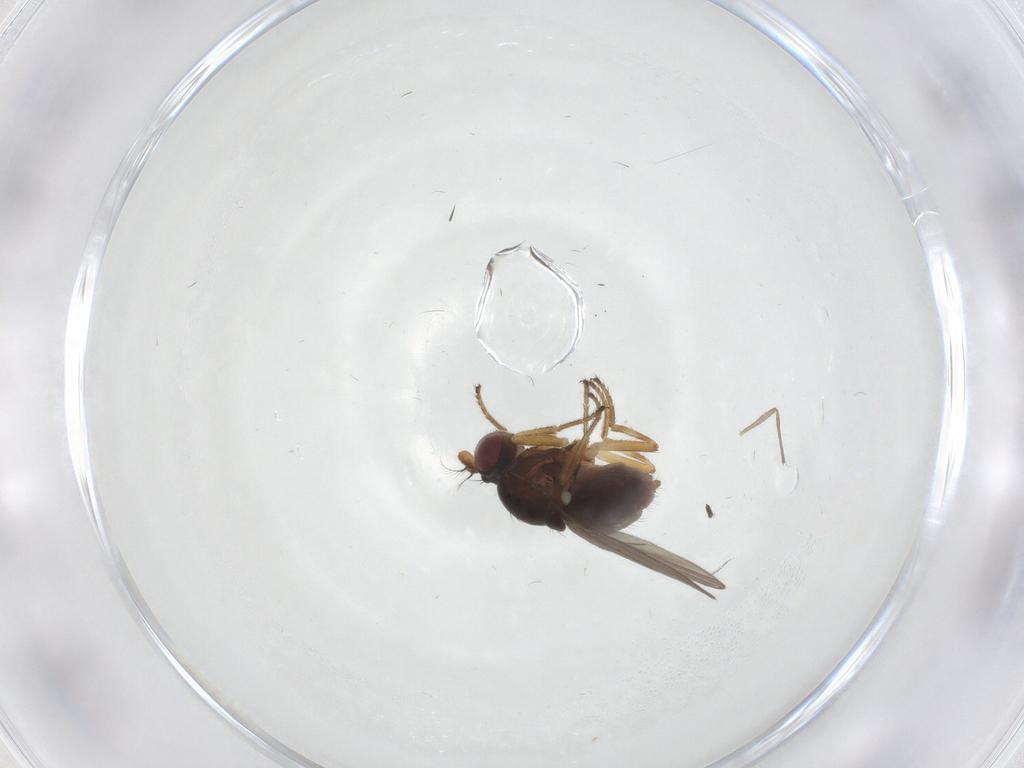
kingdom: Animalia
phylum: Arthropoda
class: Insecta
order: Diptera
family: Ephydridae
